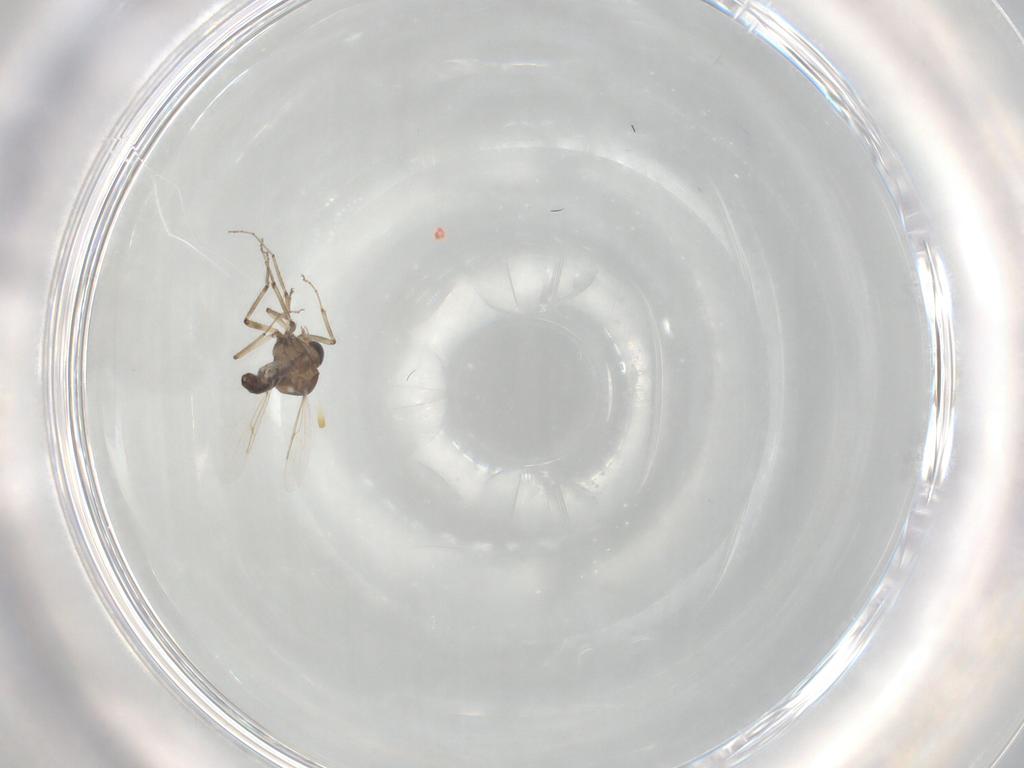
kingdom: Animalia
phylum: Arthropoda
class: Insecta
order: Diptera
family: Ceratopogonidae
